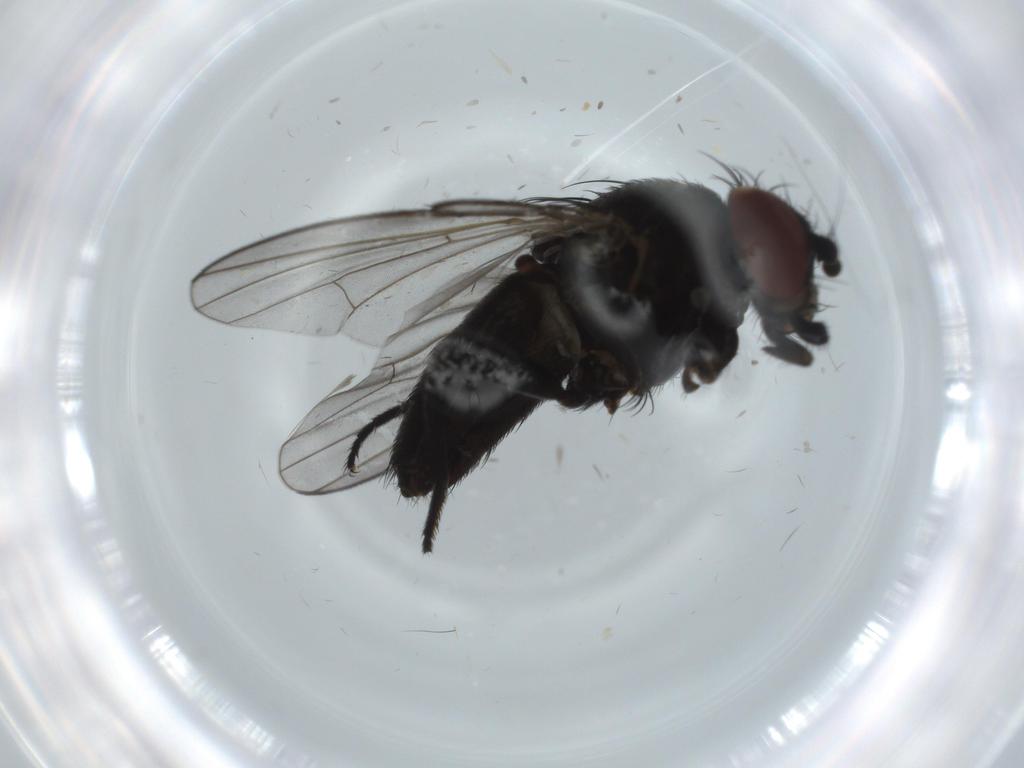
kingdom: Animalia
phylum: Arthropoda
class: Insecta
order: Diptera
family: Milichiidae
